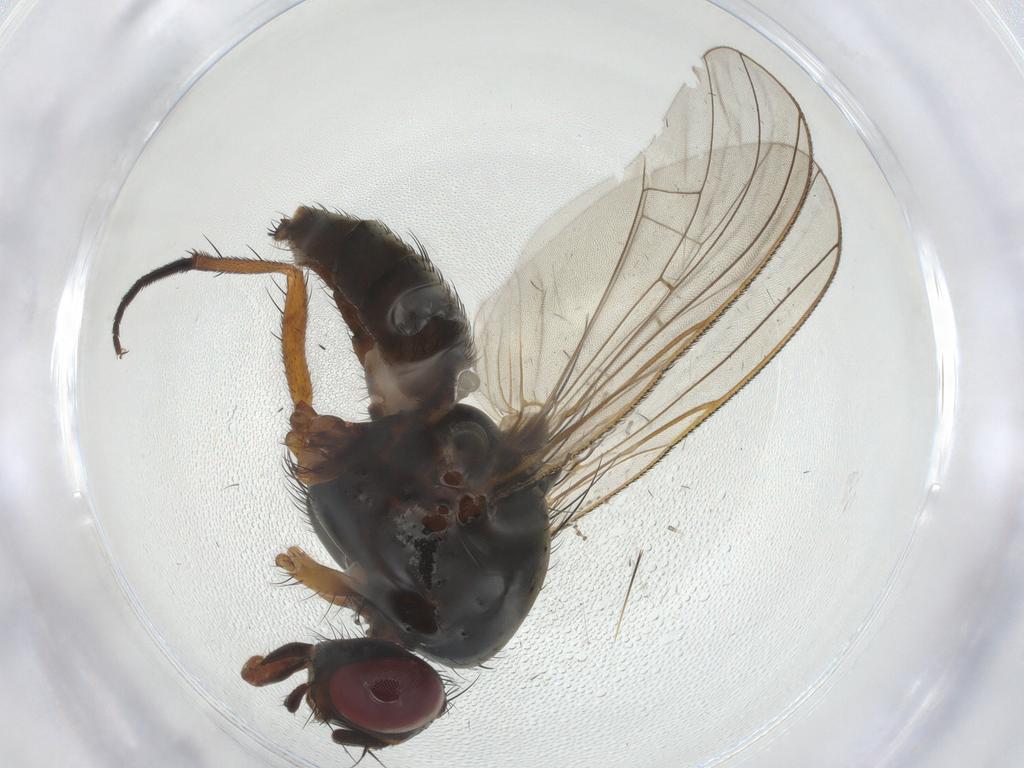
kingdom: Animalia
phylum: Arthropoda
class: Insecta
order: Diptera
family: Anthomyiidae
